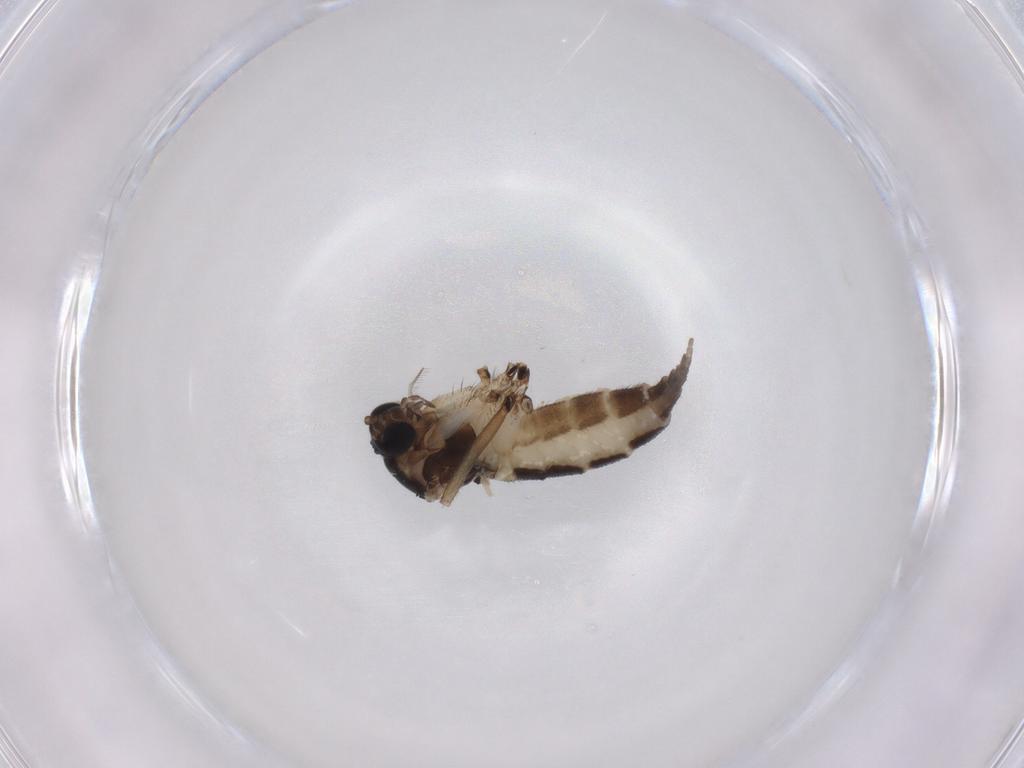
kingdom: Animalia
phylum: Arthropoda
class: Insecta
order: Diptera
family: Sciaridae
